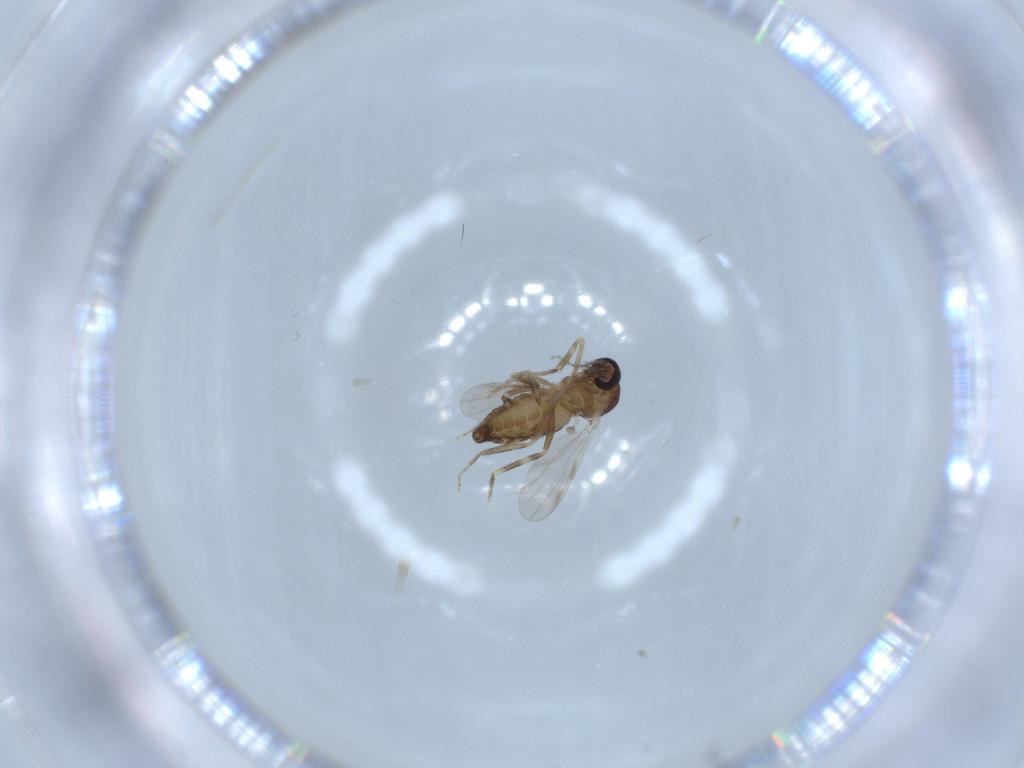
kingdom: Animalia
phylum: Arthropoda
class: Insecta
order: Diptera
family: Ceratopogonidae
